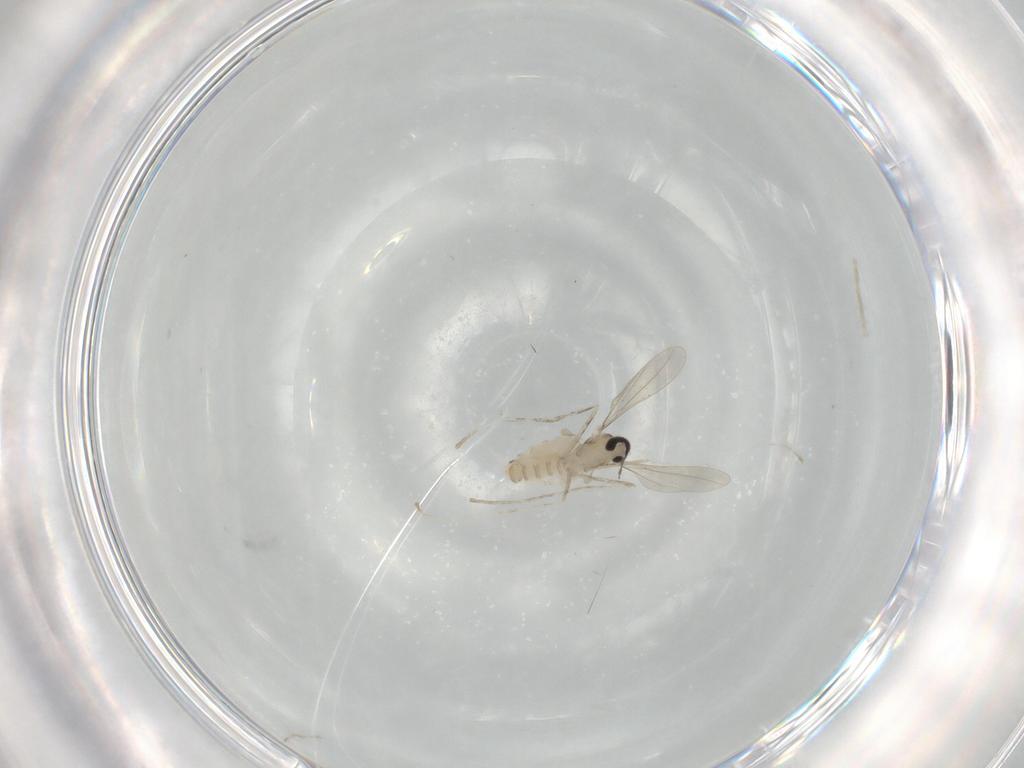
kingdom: Animalia
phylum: Arthropoda
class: Insecta
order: Diptera
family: Cecidomyiidae
